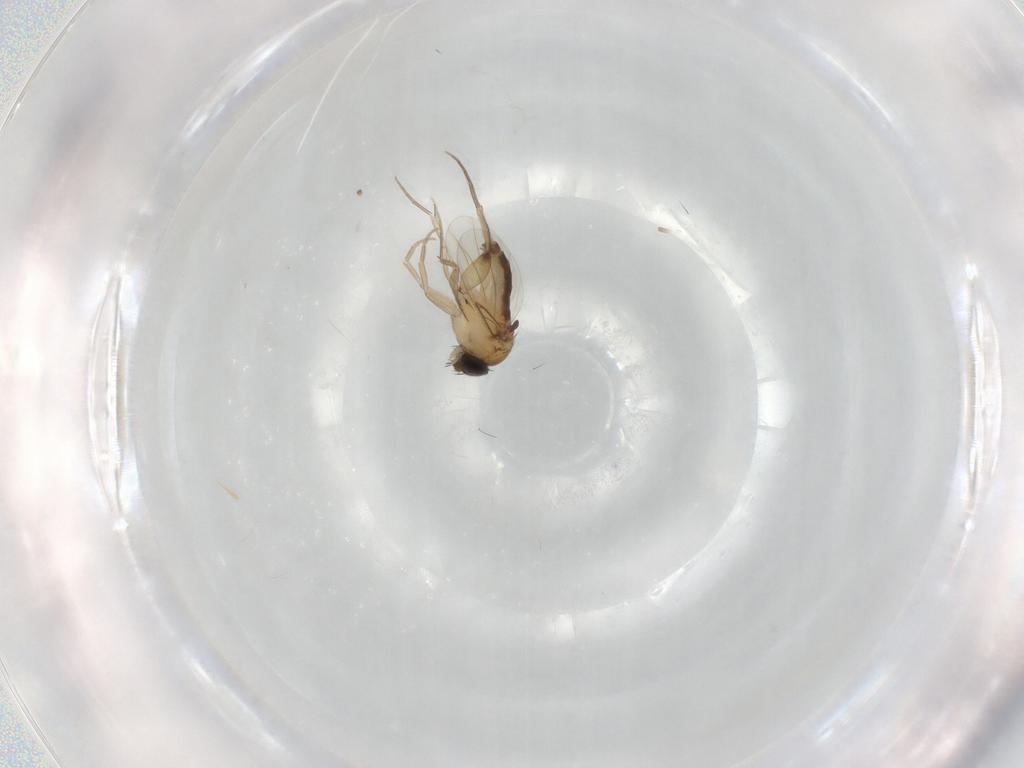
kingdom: Animalia
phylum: Arthropoda
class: Insecta
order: Diptera
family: Phoridae
